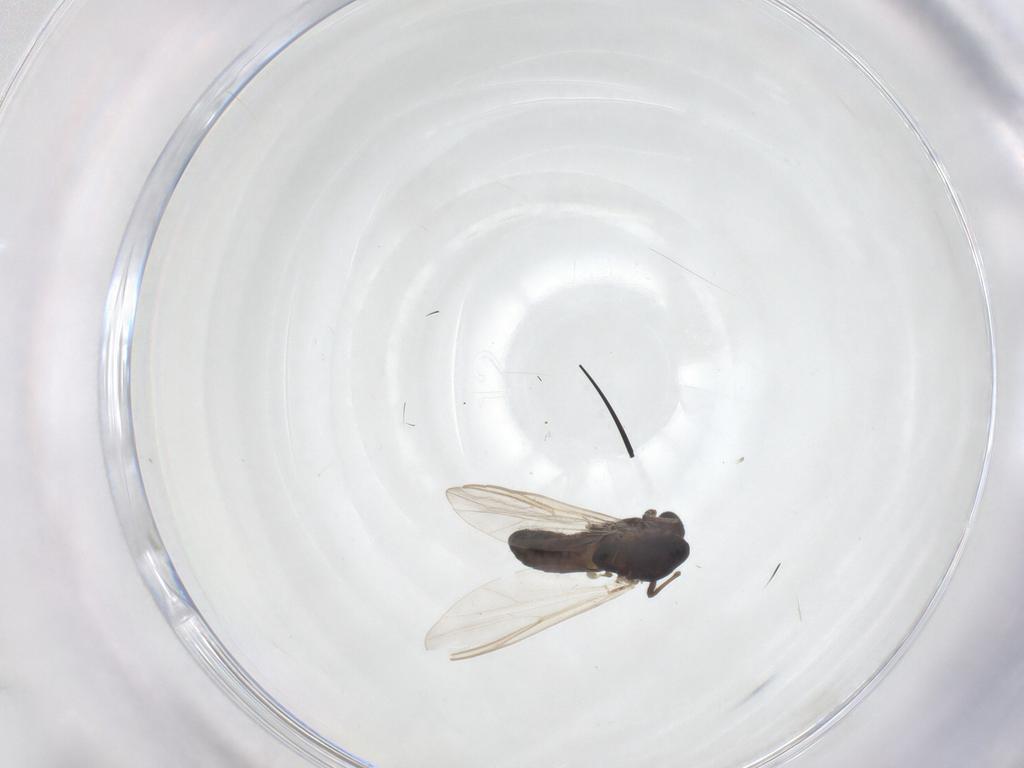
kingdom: Animalia
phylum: Arthropoda
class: Insecta
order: Diptera
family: Chironomidae
